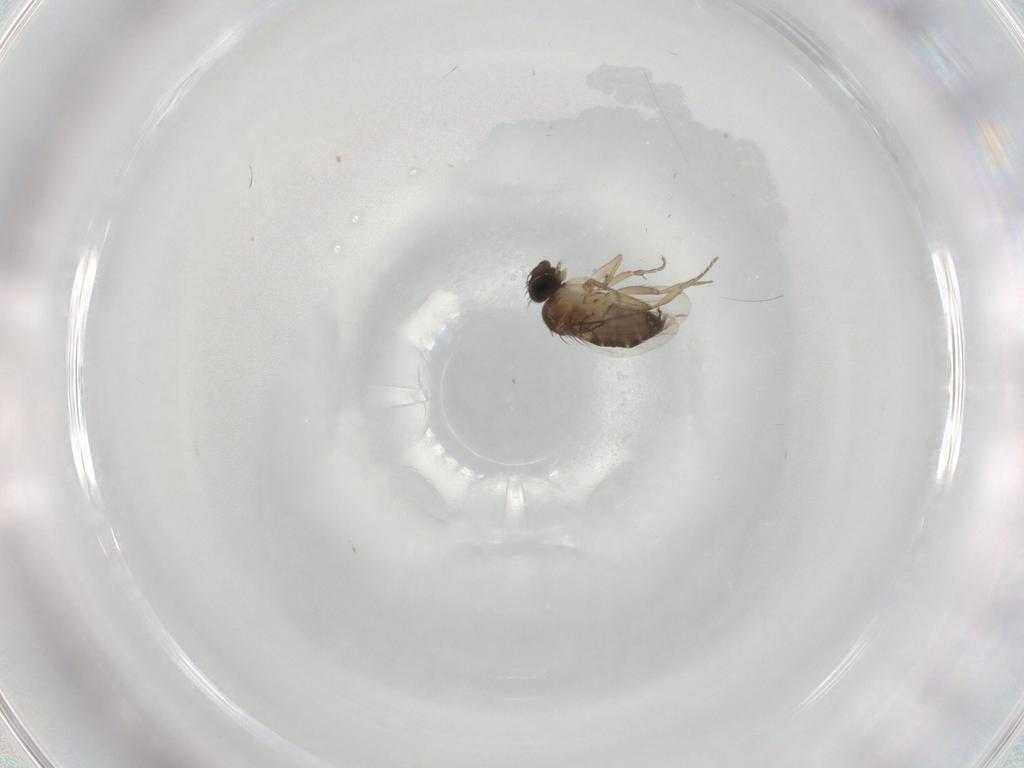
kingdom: Animalia
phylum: Arthropoda
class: Insecta
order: Diptera
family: Phoridae
